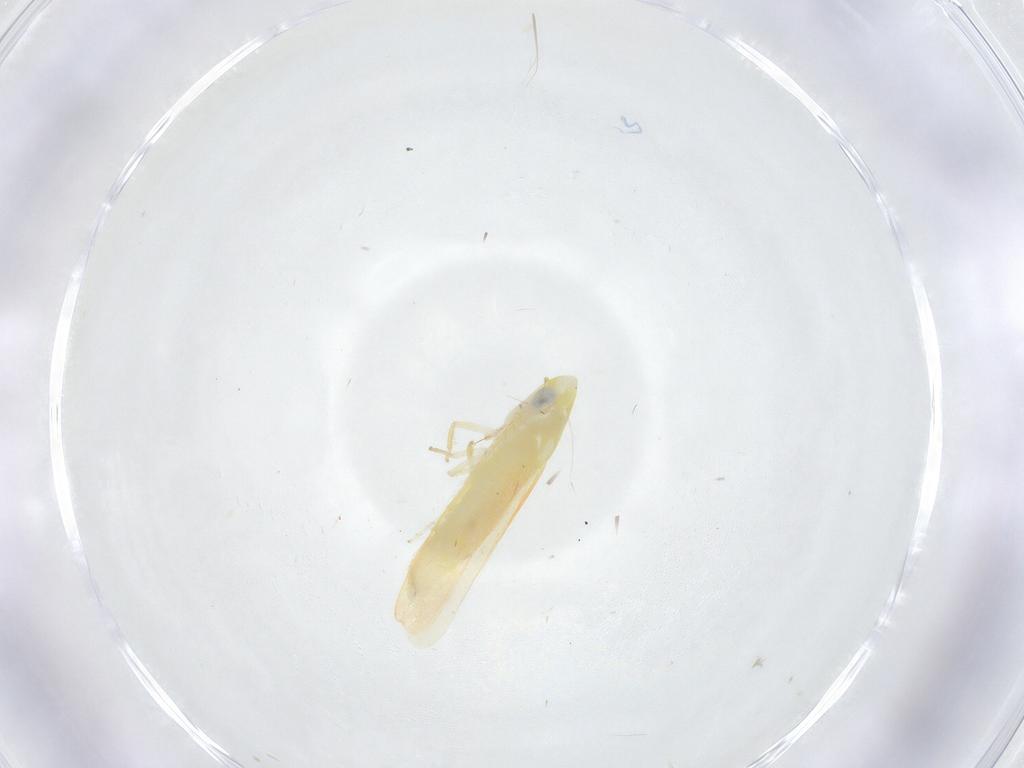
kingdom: Animalia
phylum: Arthropoda
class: Insecta
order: Hemiptera
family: Cicadellidae
